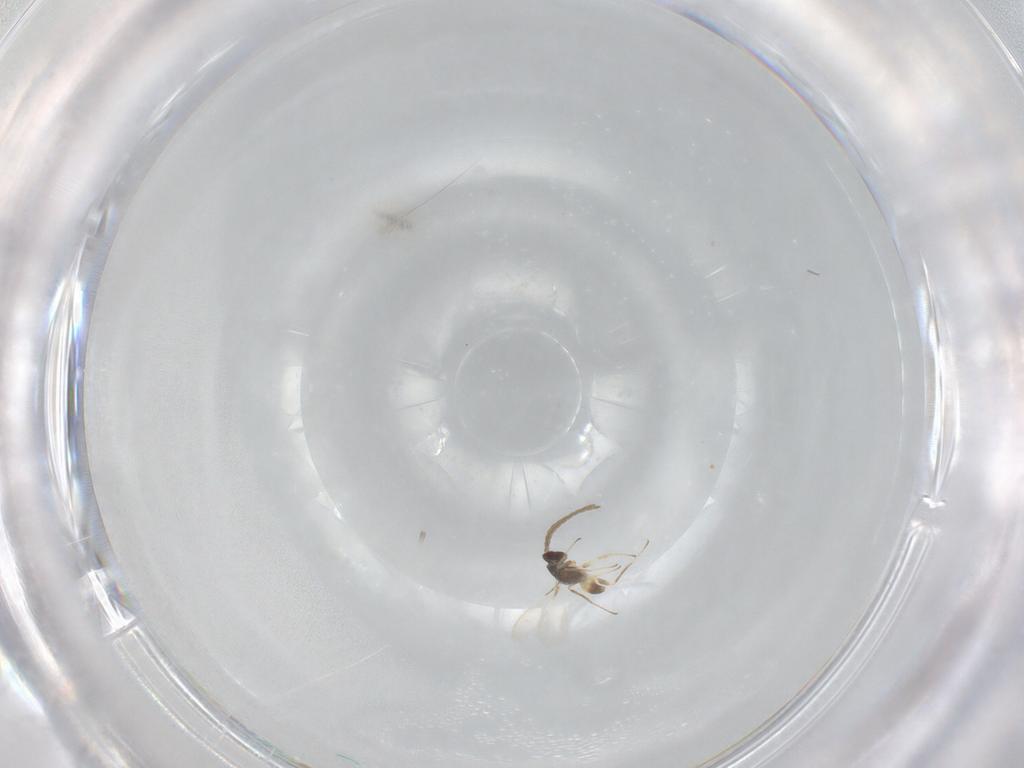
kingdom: Animalia
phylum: Arthropoda
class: Insecta
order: Hymenoptera
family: Mymaridae
